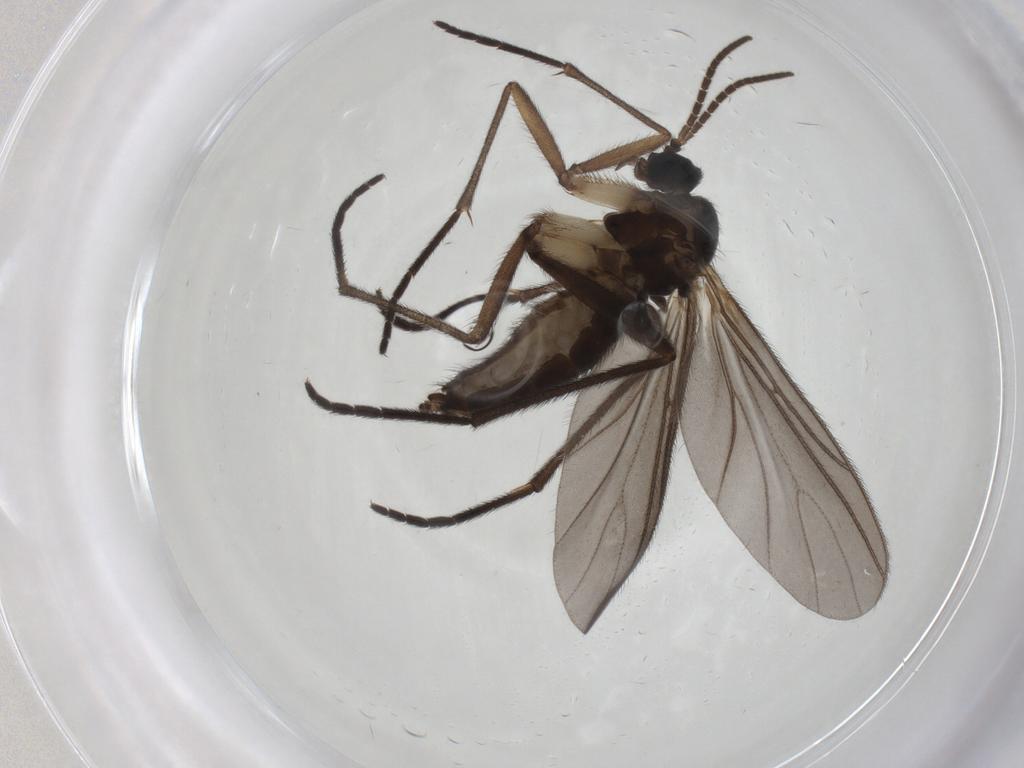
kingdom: Animalia
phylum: Arthropoda
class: Insecta
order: Diptera
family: Sciaridae
